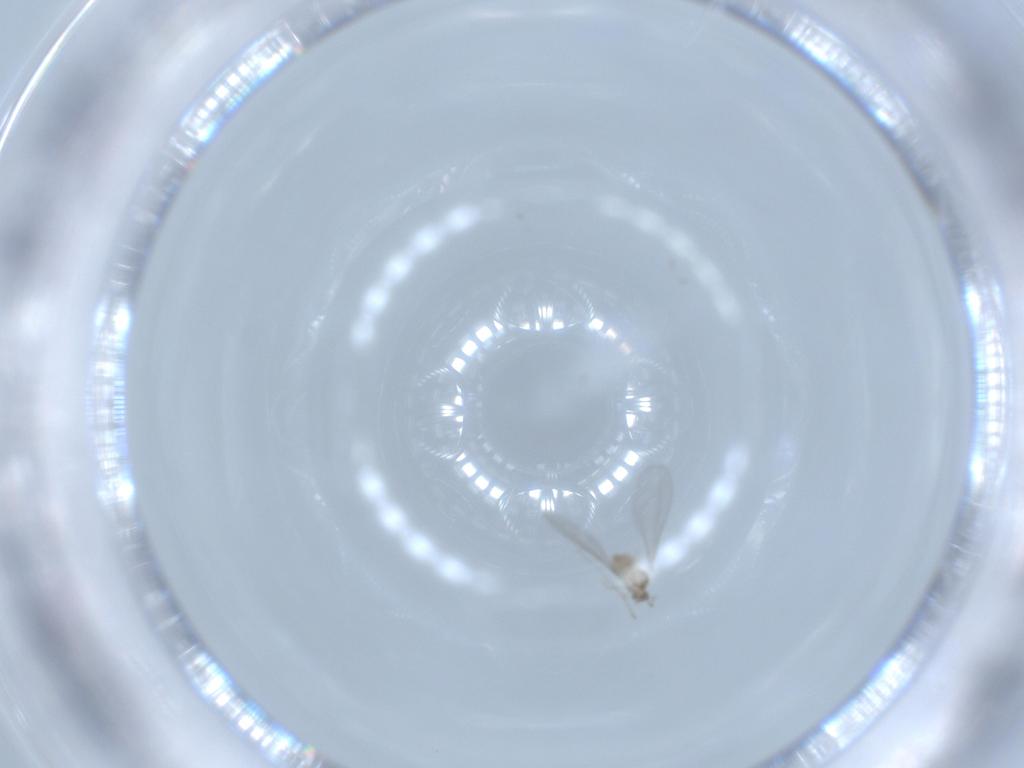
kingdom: Animalia
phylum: Arthropoda
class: Insecta
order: Diptera
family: Cecidomyiidae
